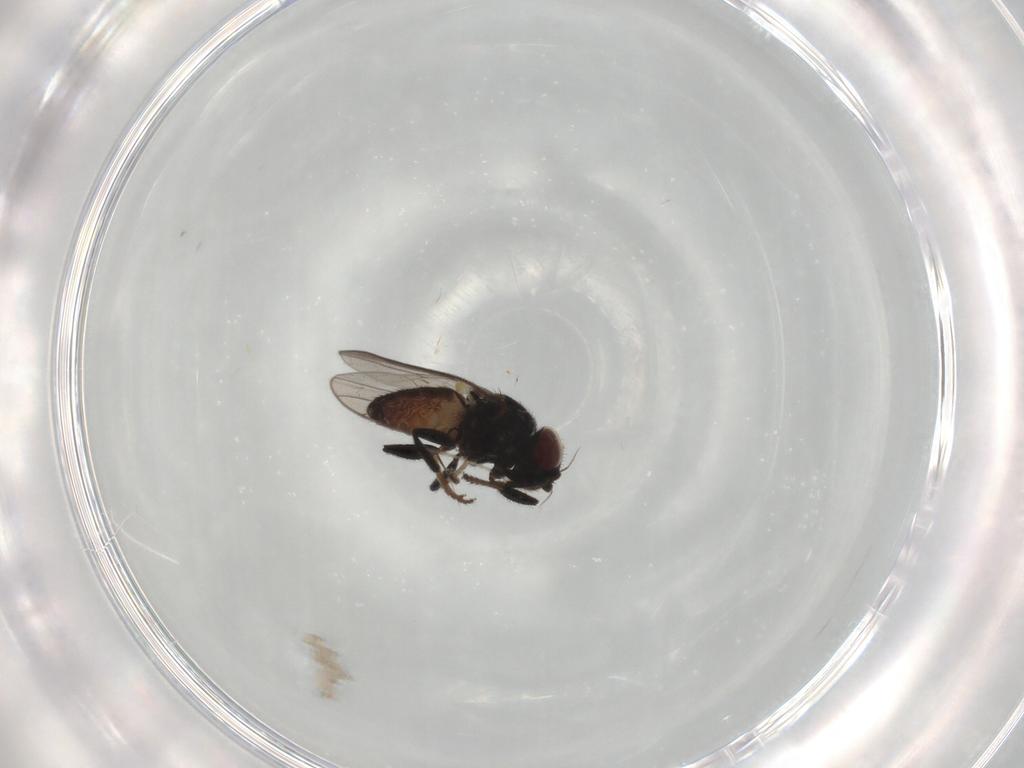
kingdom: Animalia
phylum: Arthropoda
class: Insecta
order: Diptera
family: Chloropidae
